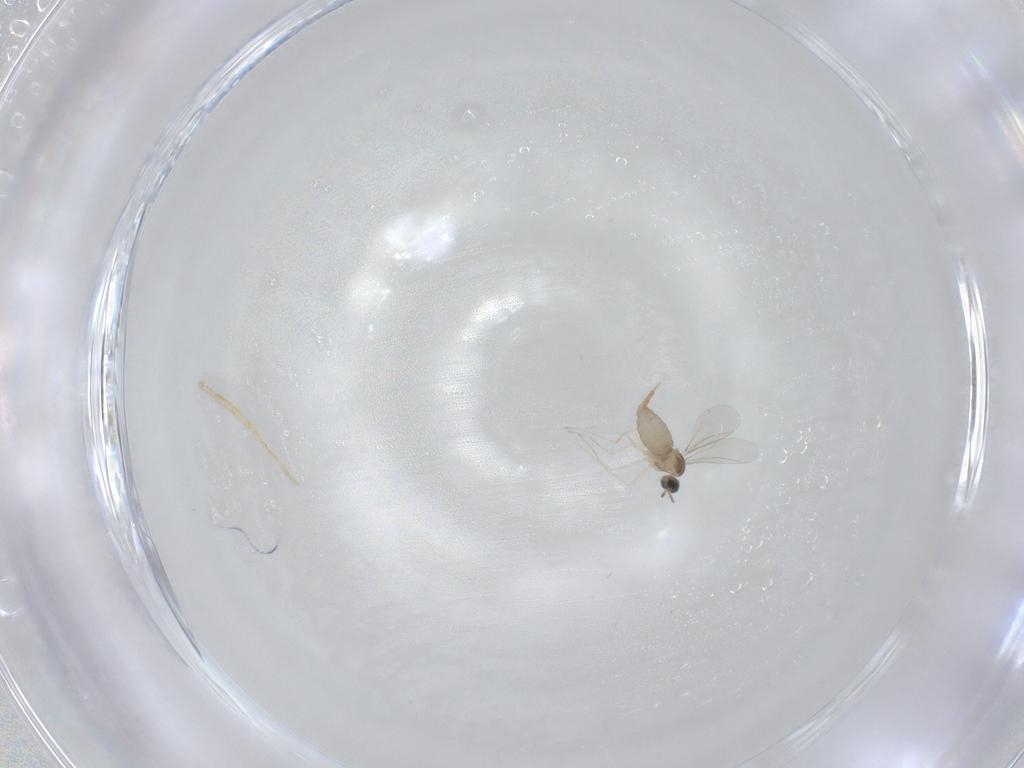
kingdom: Animalia
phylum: Arthropoda
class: Insecta
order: Diptera
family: Cecidomyiidae
